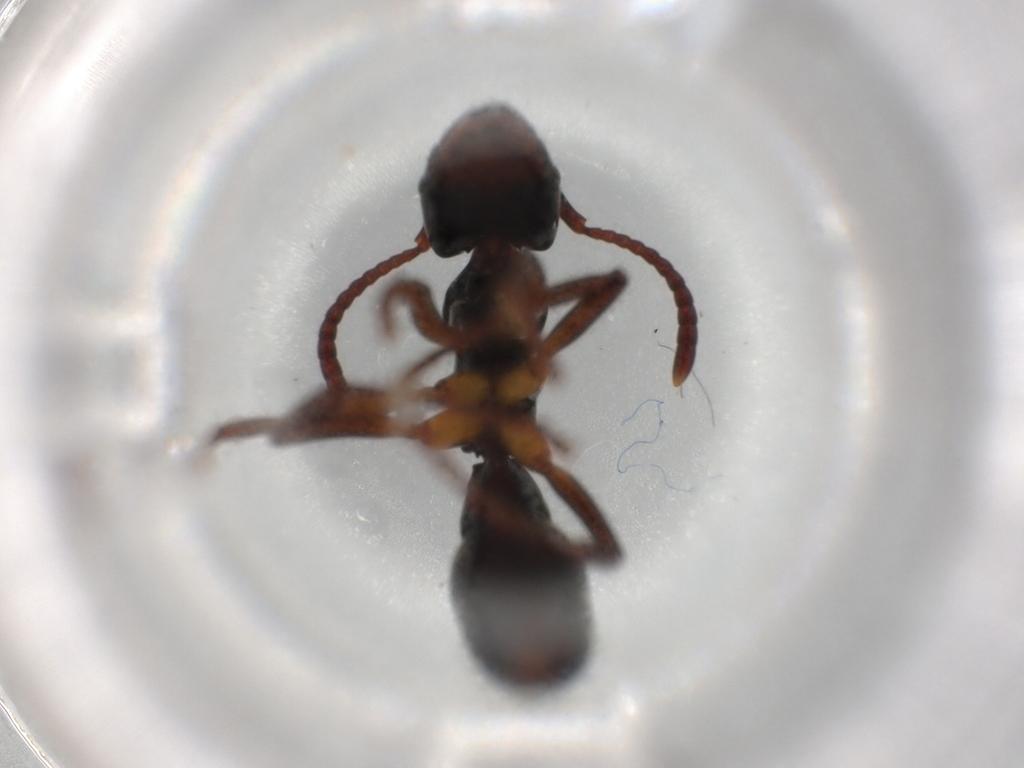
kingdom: Animalia
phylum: Arthropoda
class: Insecta
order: Hymenoptera
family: Formicidae
